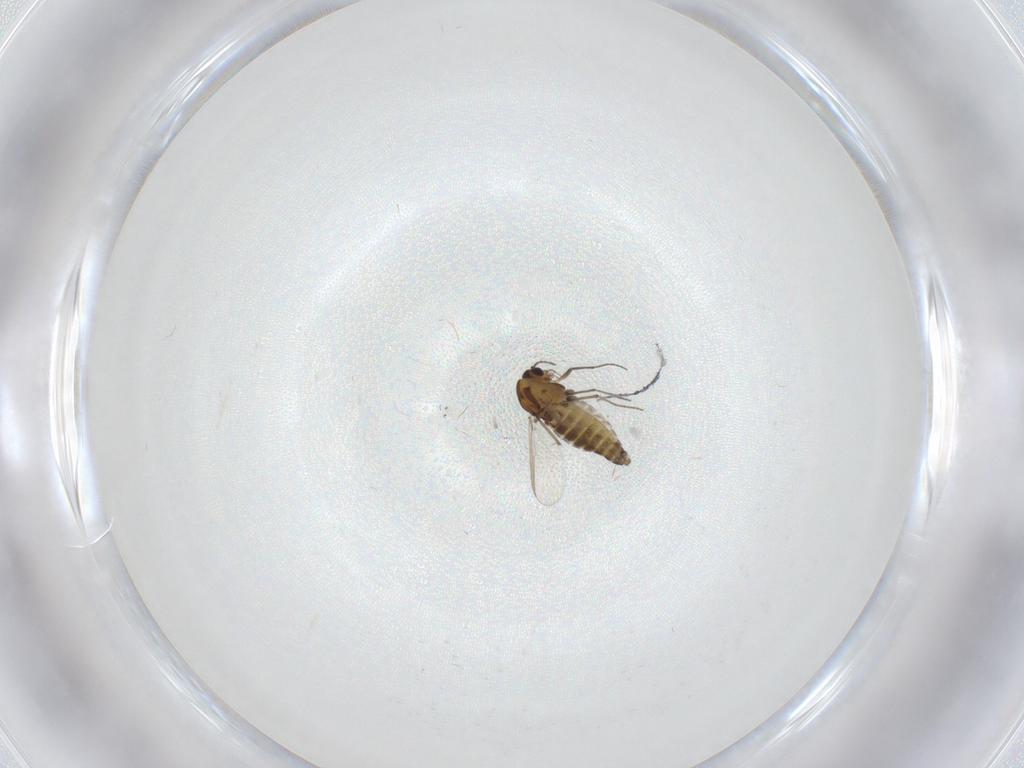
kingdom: Animalia
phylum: Arthropoda
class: Insecta
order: Diptera
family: Chironomidae
